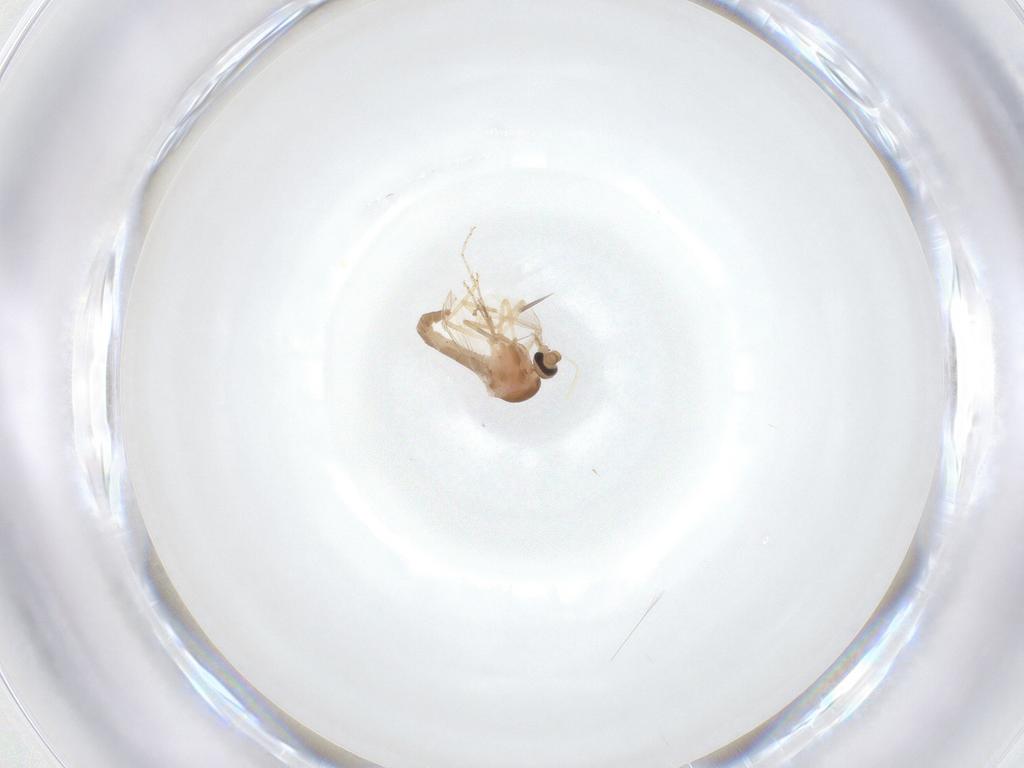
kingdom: Animalia
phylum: Arthropoda
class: Insecta
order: Diptera
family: Ceratopogonidae
